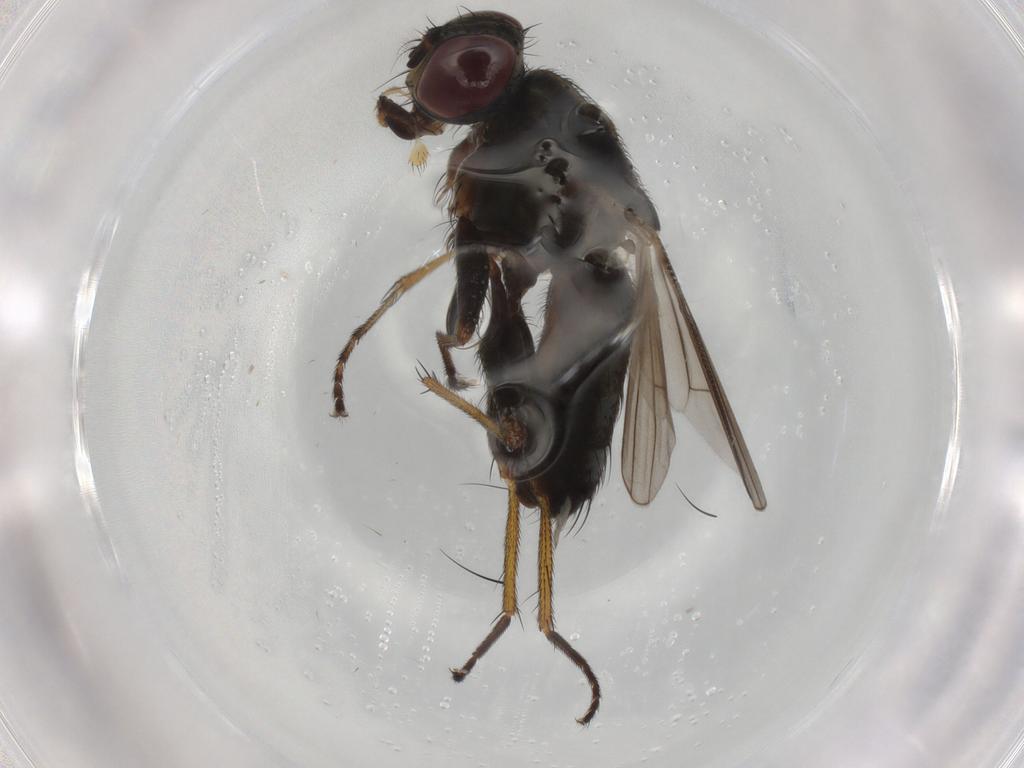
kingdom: Animalia
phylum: Arthropoda
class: Insecta
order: Diptera
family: Muscidae
